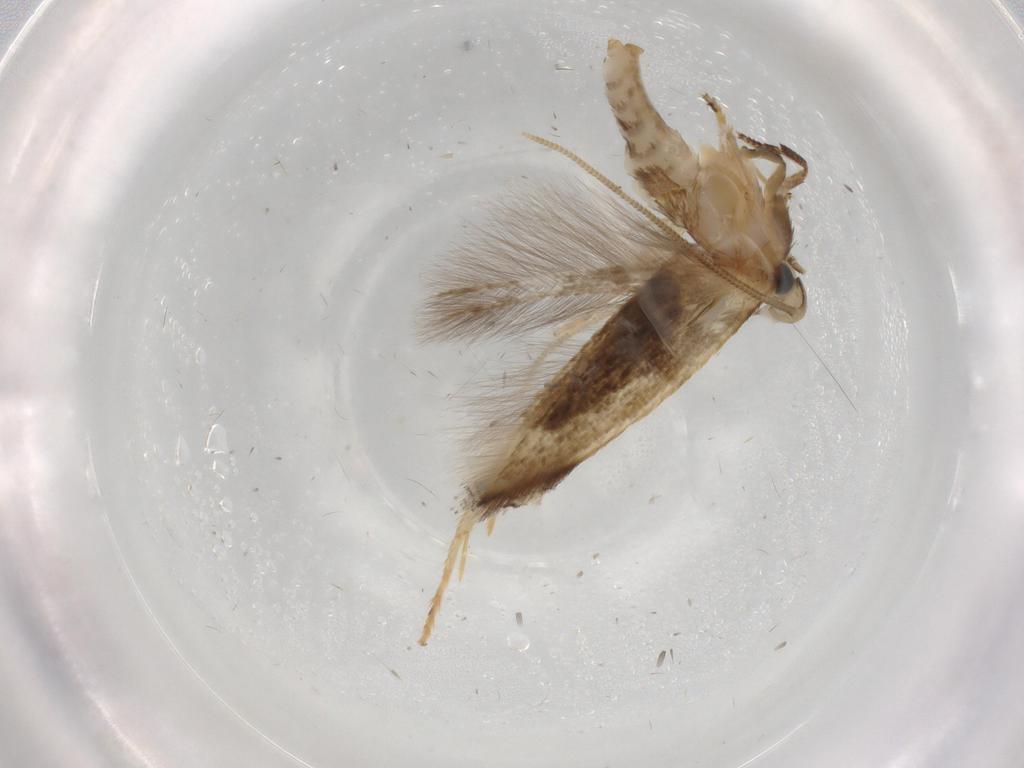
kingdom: Animalia
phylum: Arthropoda
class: Insecta
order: Lepidoptera
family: Opostegidae
